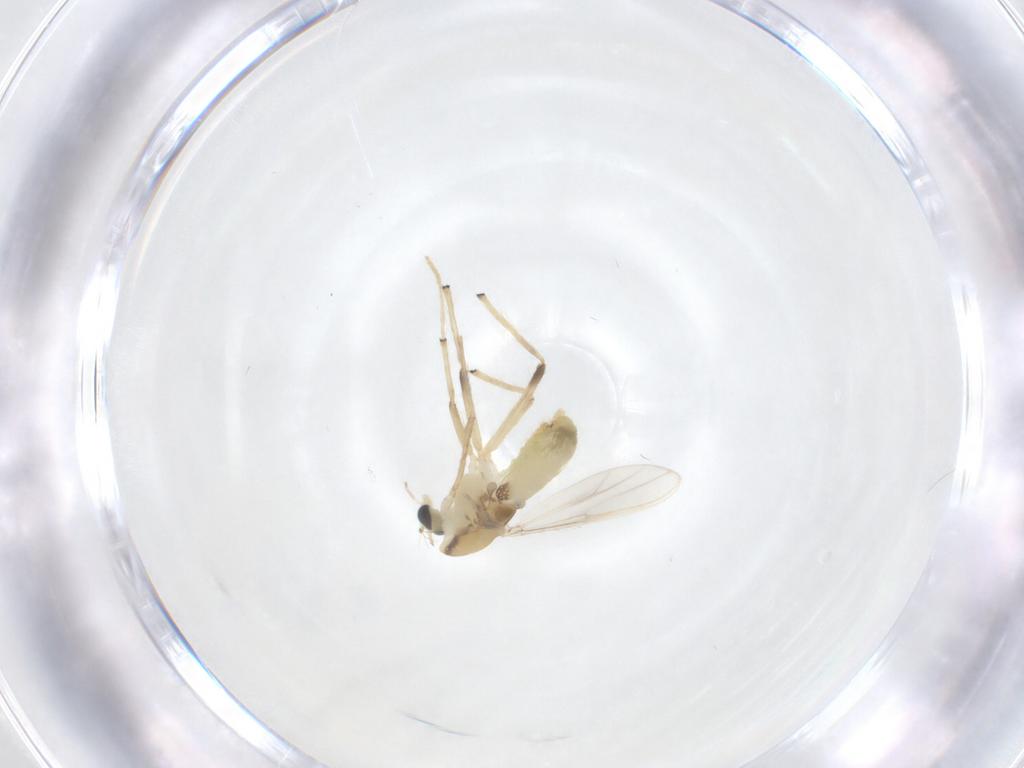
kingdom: Animalia
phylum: Arthropoda
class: Insecta
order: Diptera
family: Chironomidae
